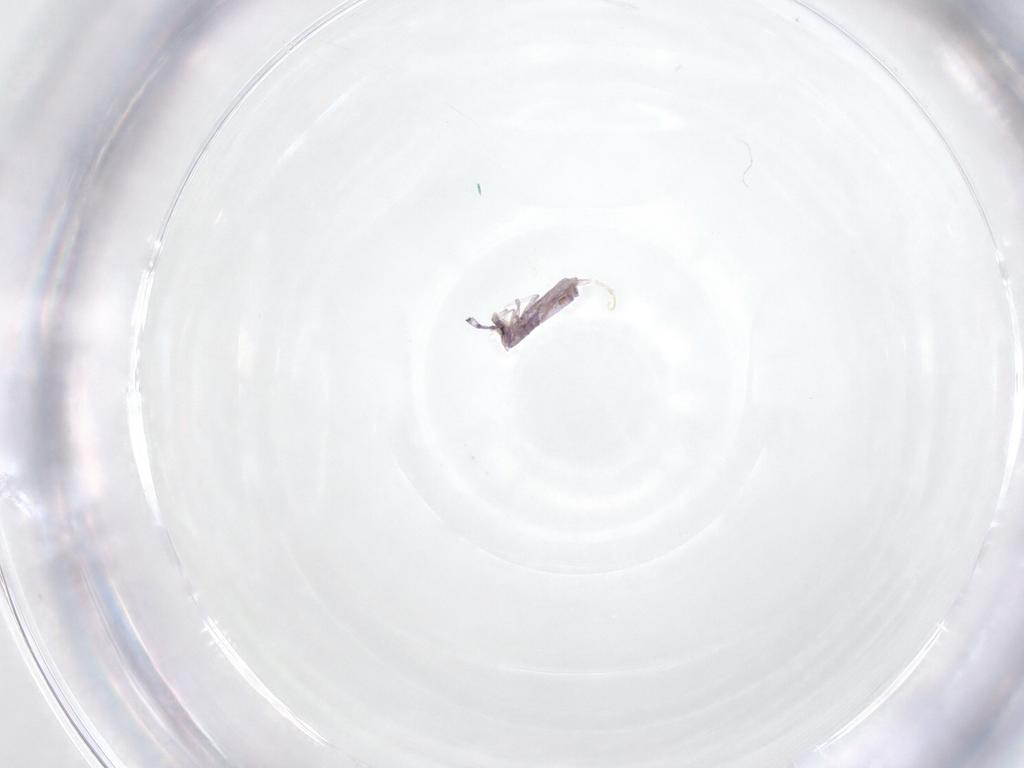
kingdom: Animalia
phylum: Arthropoda
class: Collembola
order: Entomobryomorpha
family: Entomobryidae
